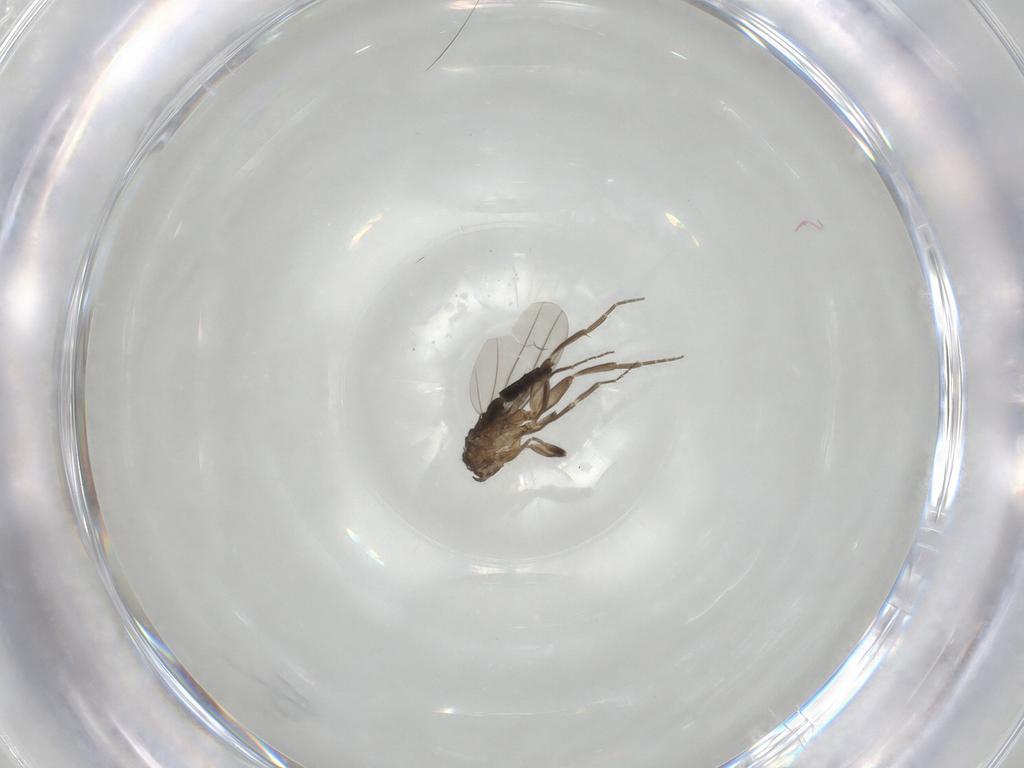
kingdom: Animalia
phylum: Arthropoda
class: Insecta
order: Diptera
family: Phoridae
